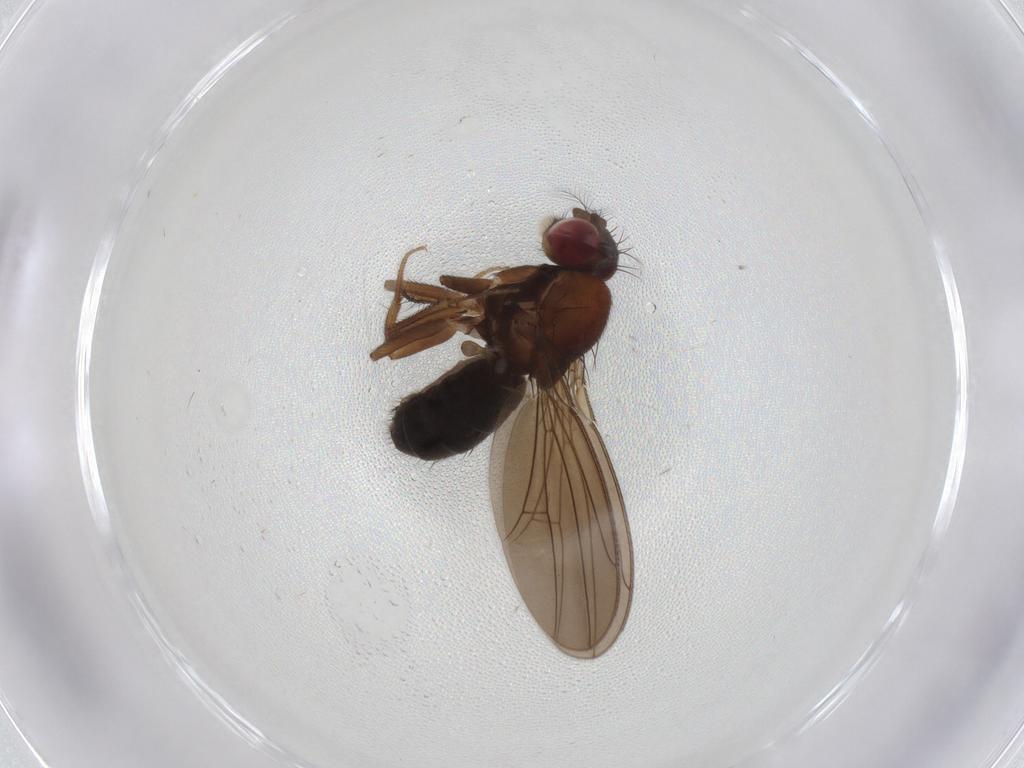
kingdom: Animalia
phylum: Arthropoda
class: Insecta
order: Diptera
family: Drosophilidae
